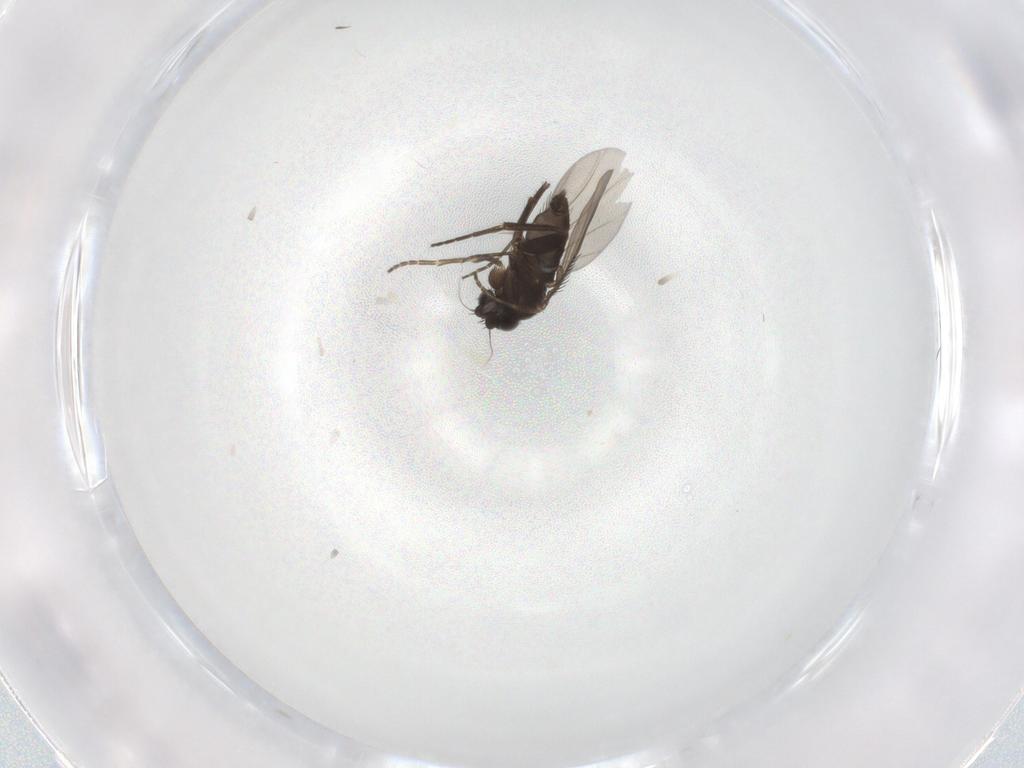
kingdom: Animalia
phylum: Arthropoda
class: Insecta
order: Diptera
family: Phoridae
